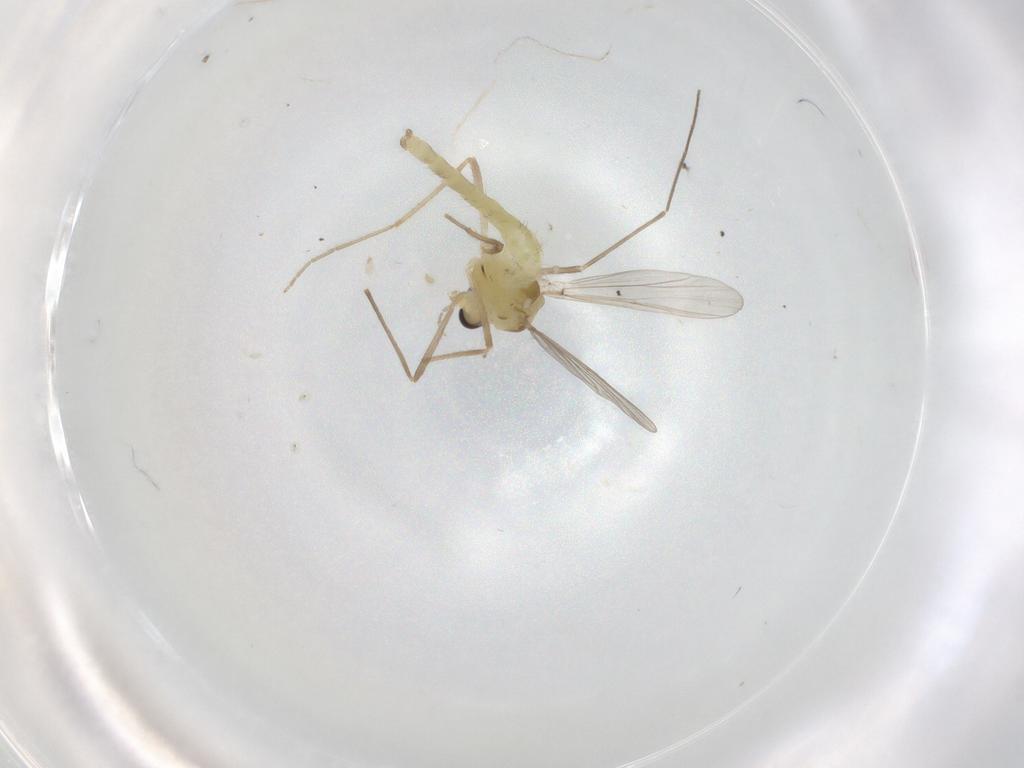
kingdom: Animalia
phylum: Arthropoda
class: Insecta
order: Diptera
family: Chironomidae
